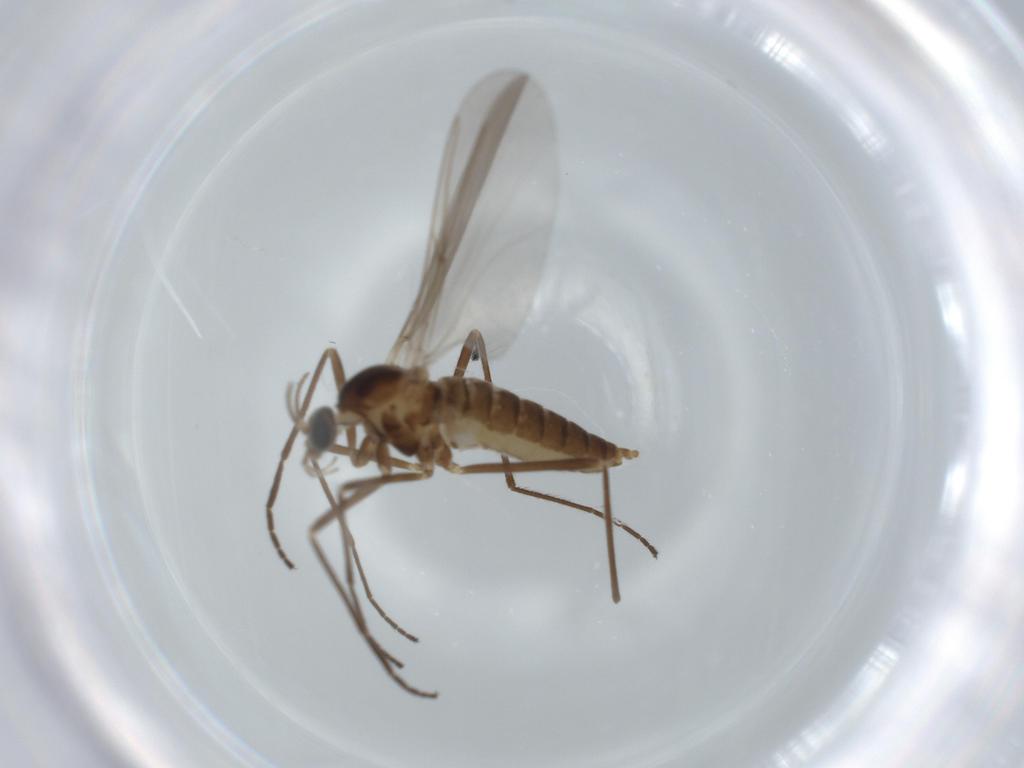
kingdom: Animalia
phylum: Arthropoda
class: Insecta
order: Diptera
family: Cecidomyiidae
